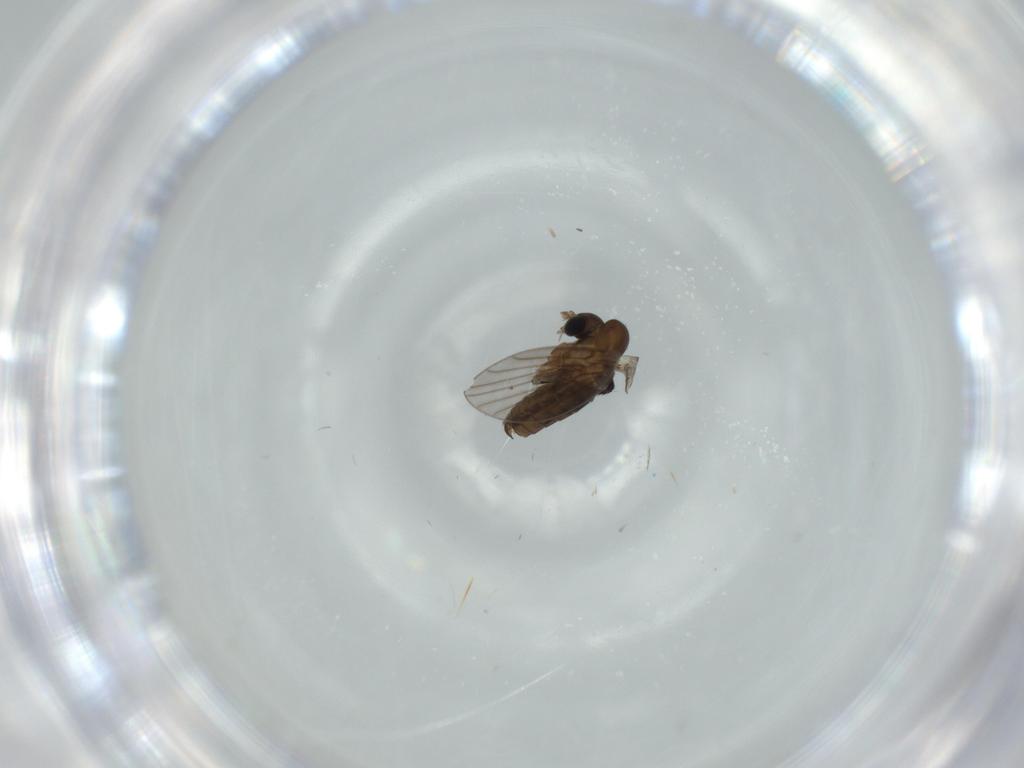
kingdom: Animalia
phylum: Arthropoda
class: Insecta
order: Diptera
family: Psychodidae
